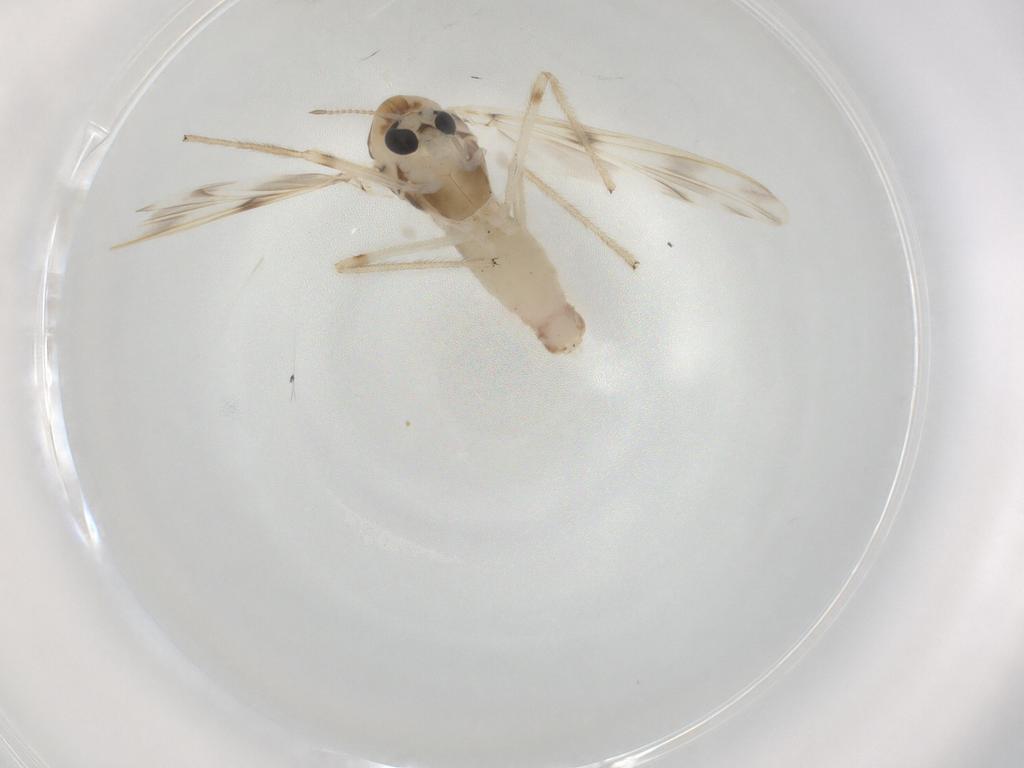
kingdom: Animalia
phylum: Arthropoda
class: Insecta
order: Diptera
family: Chironomidae
